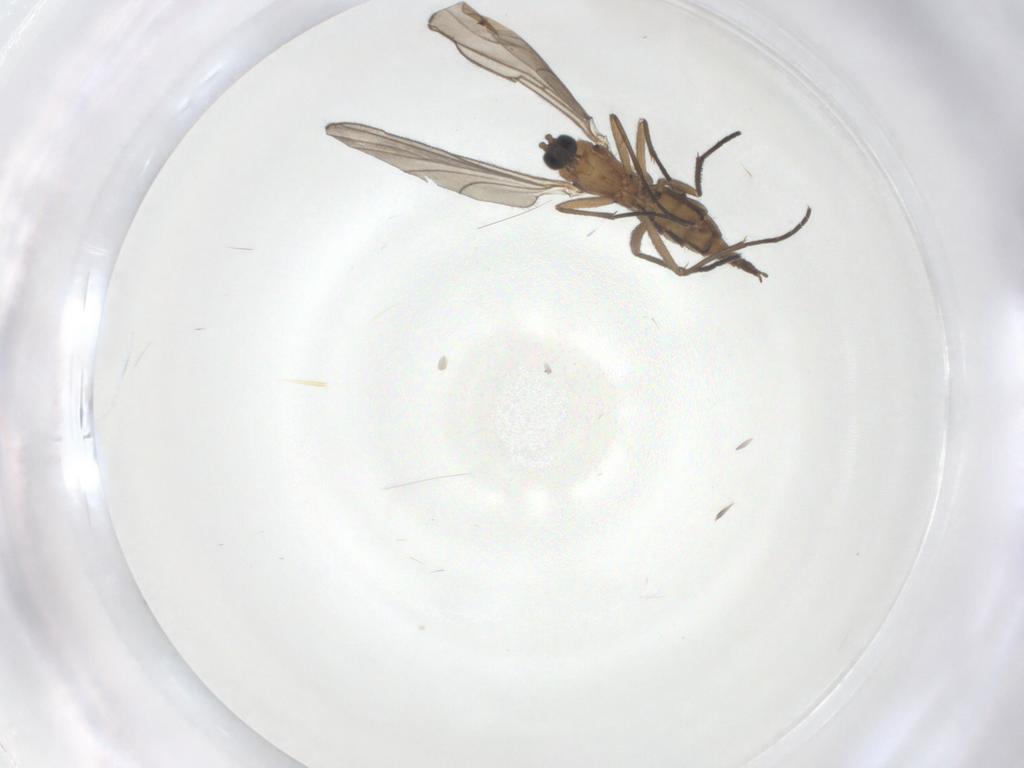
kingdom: Animalia
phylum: Arthropoda
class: Insecta
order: Diptera
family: Sciaridae
